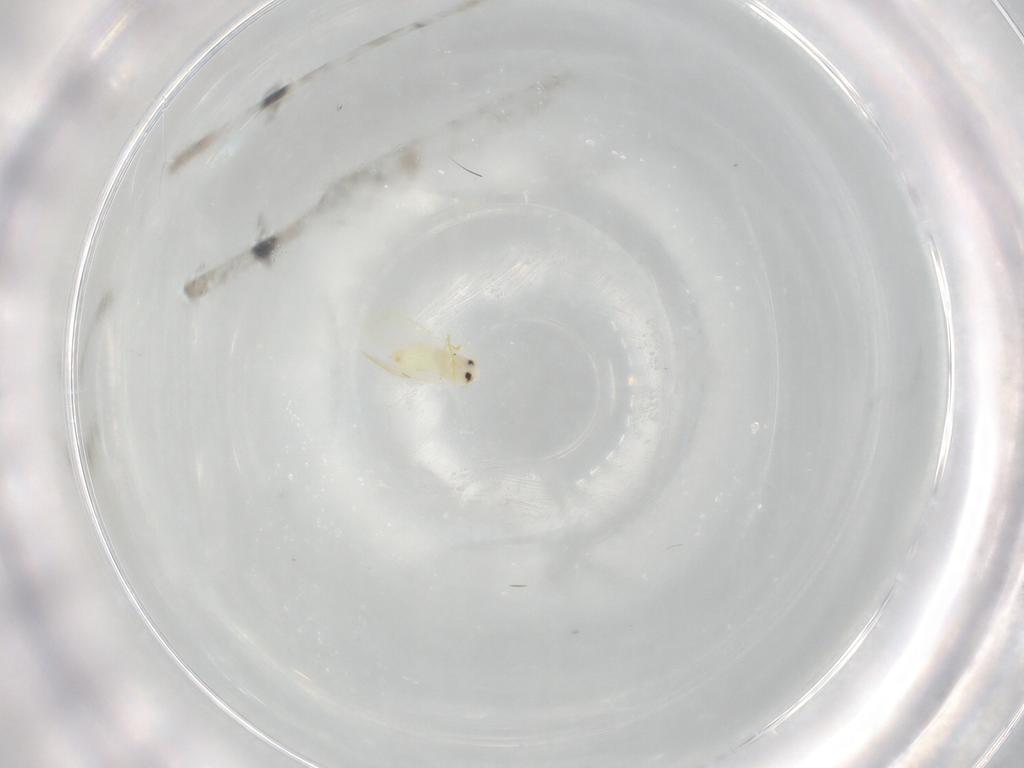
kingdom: Animalia
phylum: Arthropoda
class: Insecta
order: Hemiptera
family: Aleyrodidae
